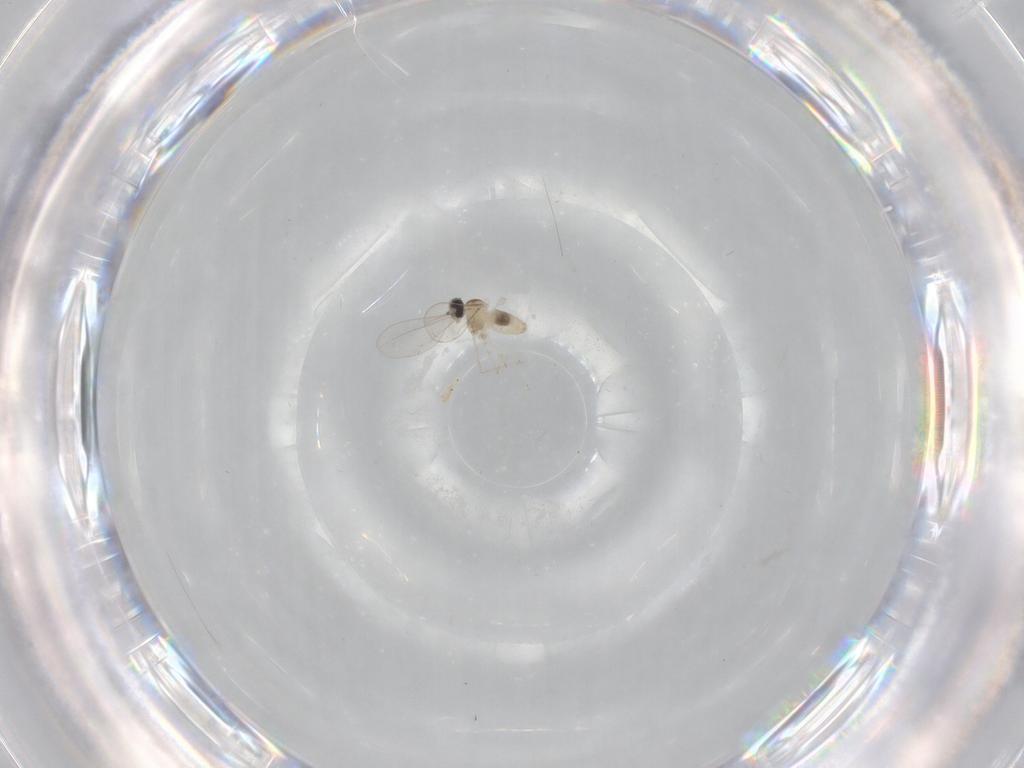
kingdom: Animalia
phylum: Arthropoda
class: Insecta
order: Diptera
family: Cecidomyiidae
